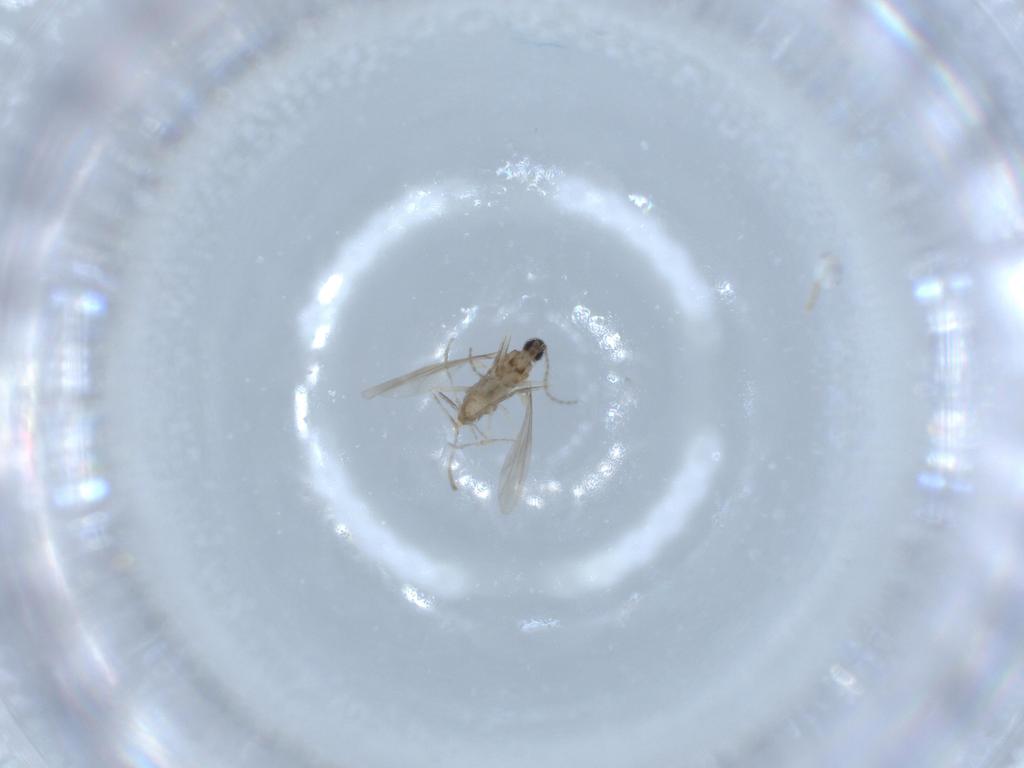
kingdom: Animalia
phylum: Arthropoda
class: Insecta
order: Diptera
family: Cecidomyiidae
